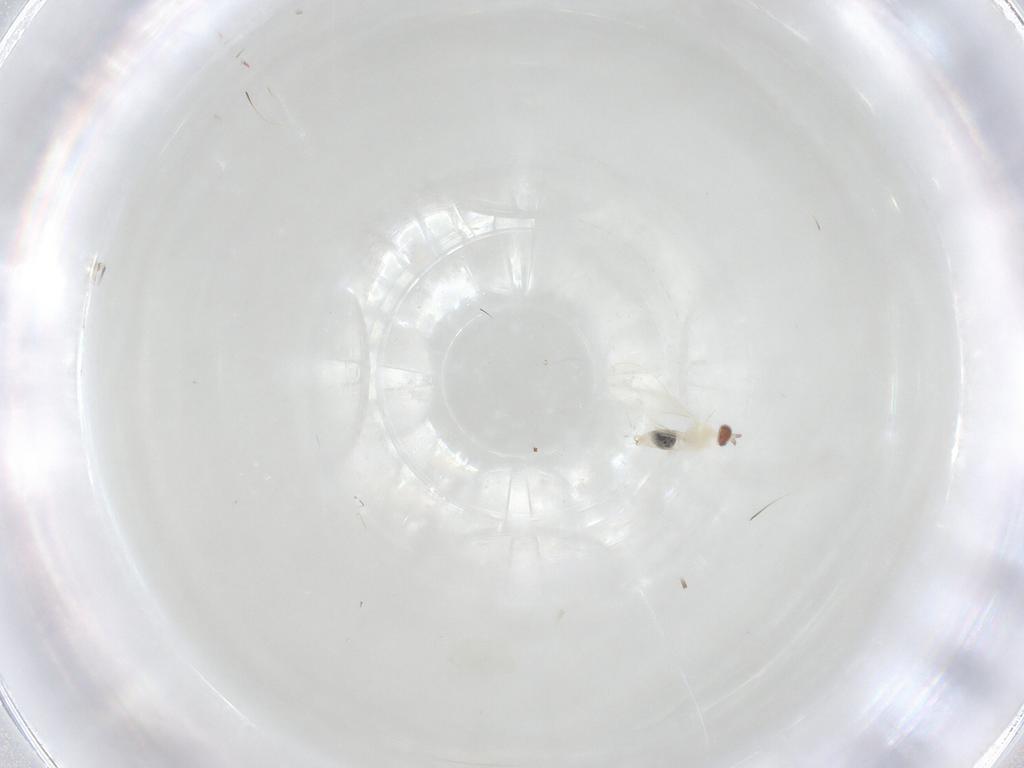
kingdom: Animalia
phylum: Arthropoda
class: Insecta
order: Diptera
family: Cecidomyiidae
